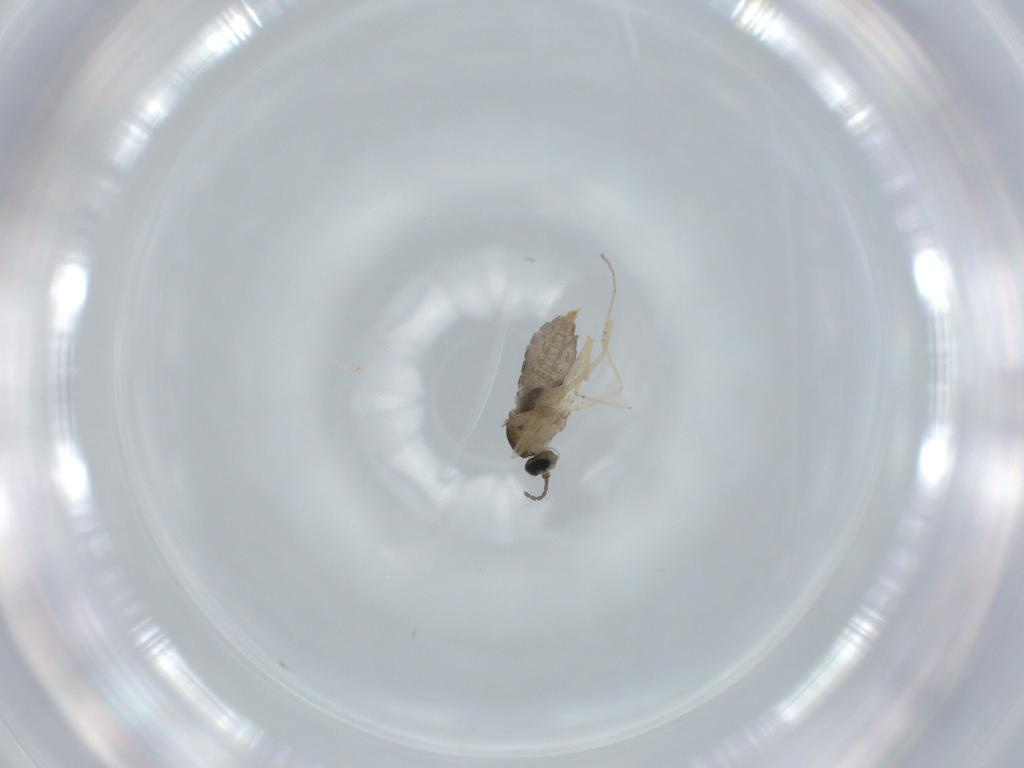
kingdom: Animalia
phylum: Arthropoda
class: Insecta
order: Diptera
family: Cecidomyiidae
